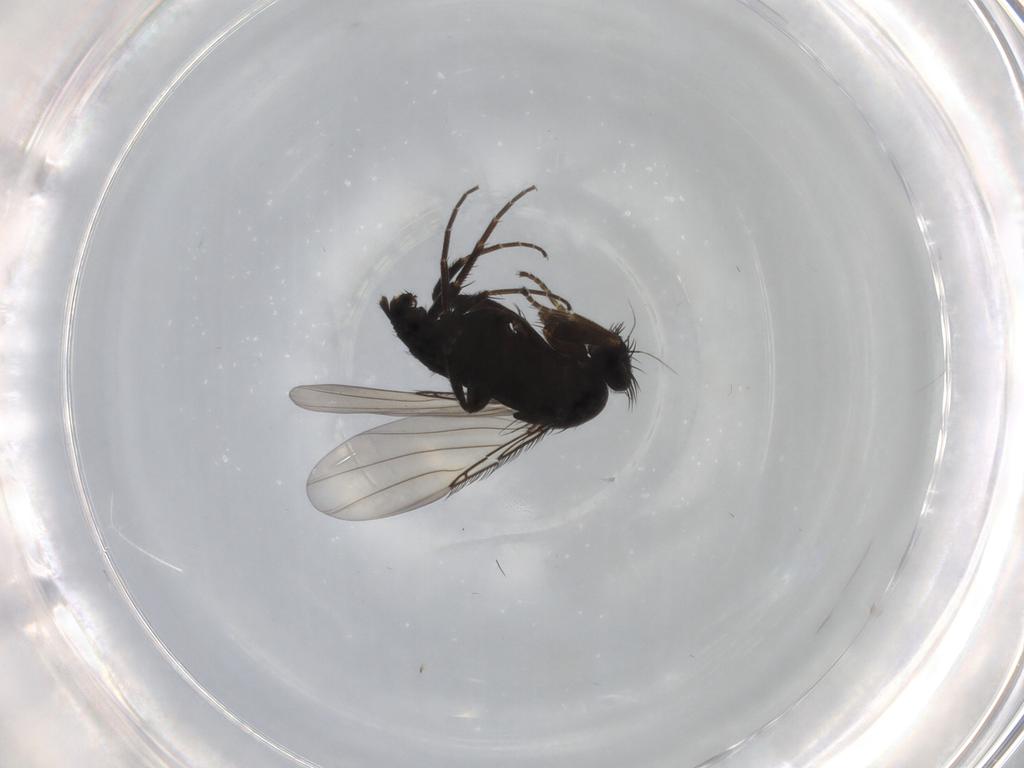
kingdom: Animalia
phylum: Arthropoda
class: Insecta
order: Diptera
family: Phoridae
